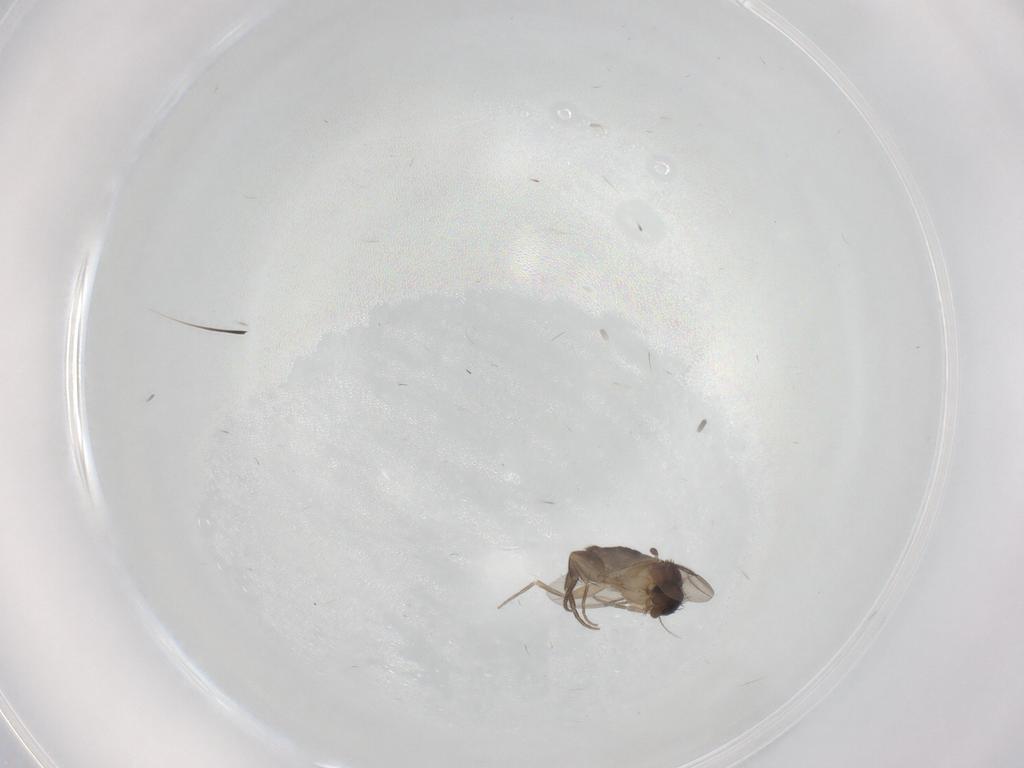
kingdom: Animalia
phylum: Arthropoda
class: Insecta
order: Diptera
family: Phoridae
